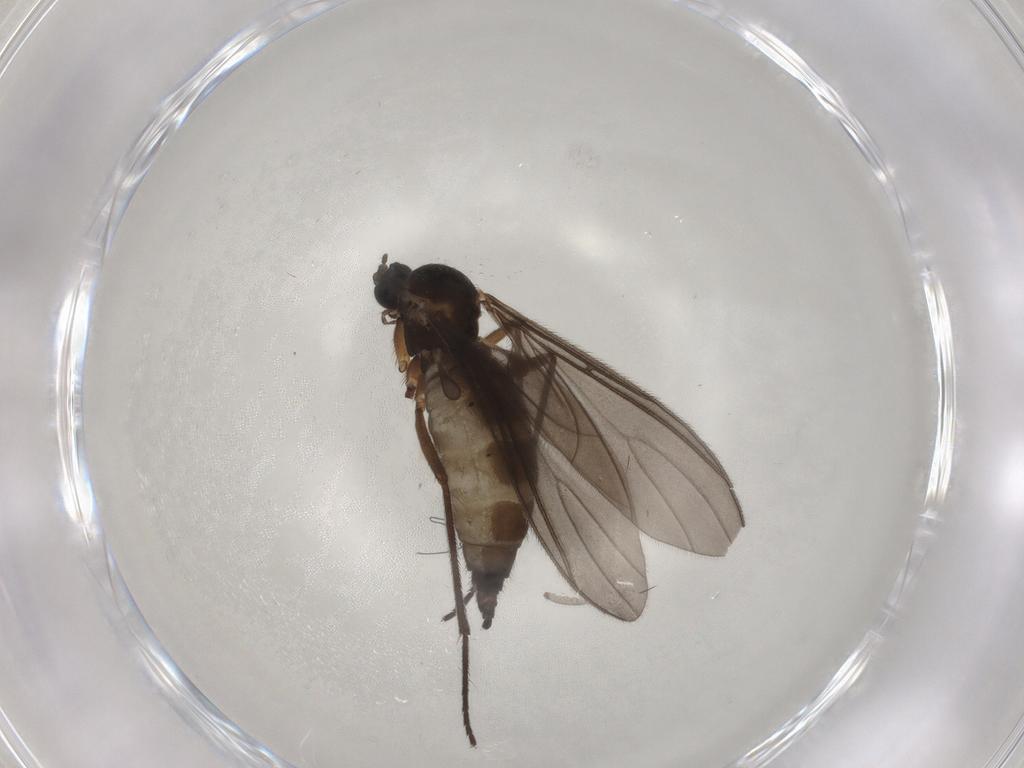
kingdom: Animalia
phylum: Arthropoda
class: Insecta
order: Diptera
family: Sciaridae
